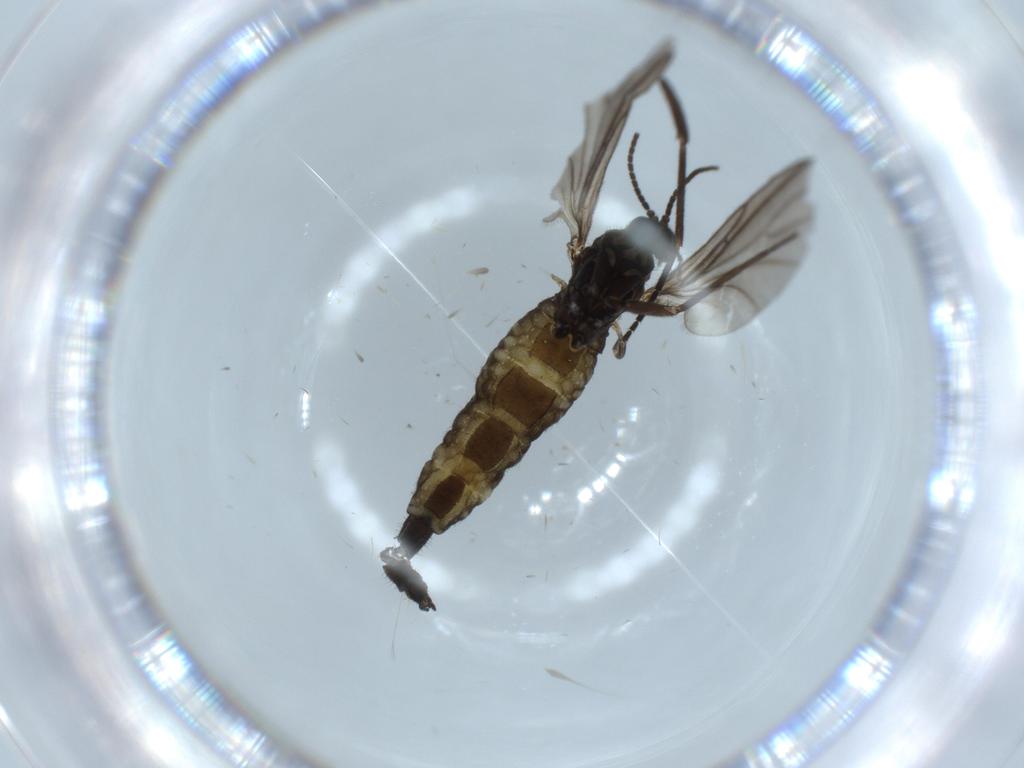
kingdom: Animalia
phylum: Arthropoda
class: Insecta
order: Diptera
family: Sciaridae
